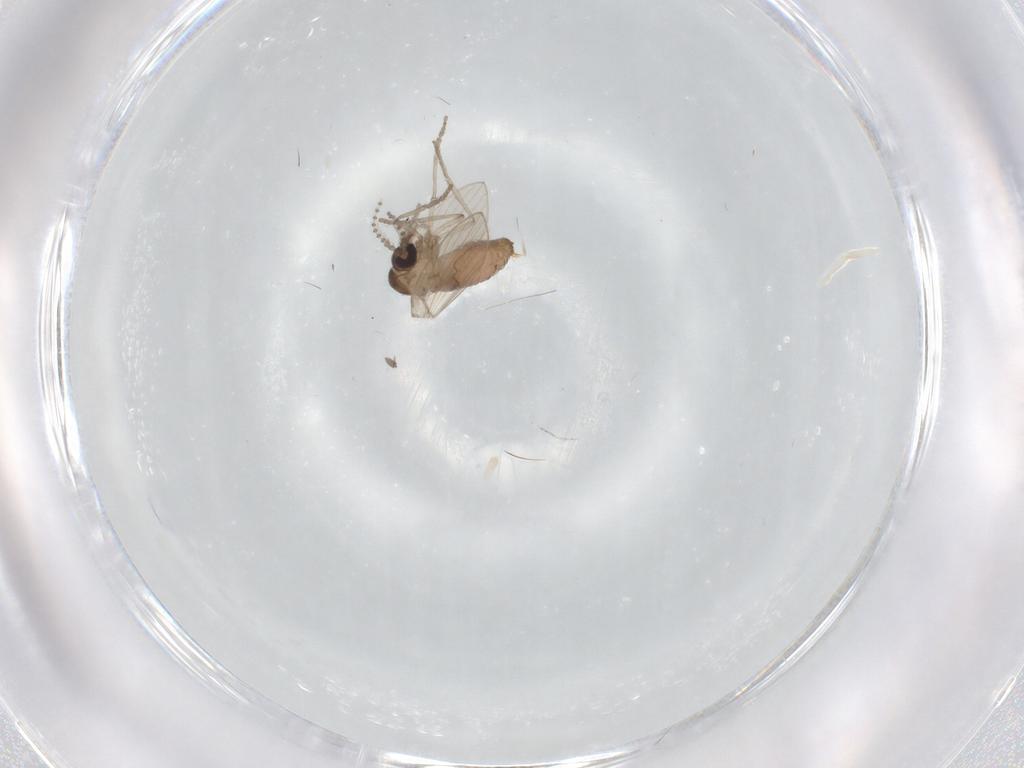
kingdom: Animalia
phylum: Arthropoda
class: Insecta
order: Diptera
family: Psychodidae
